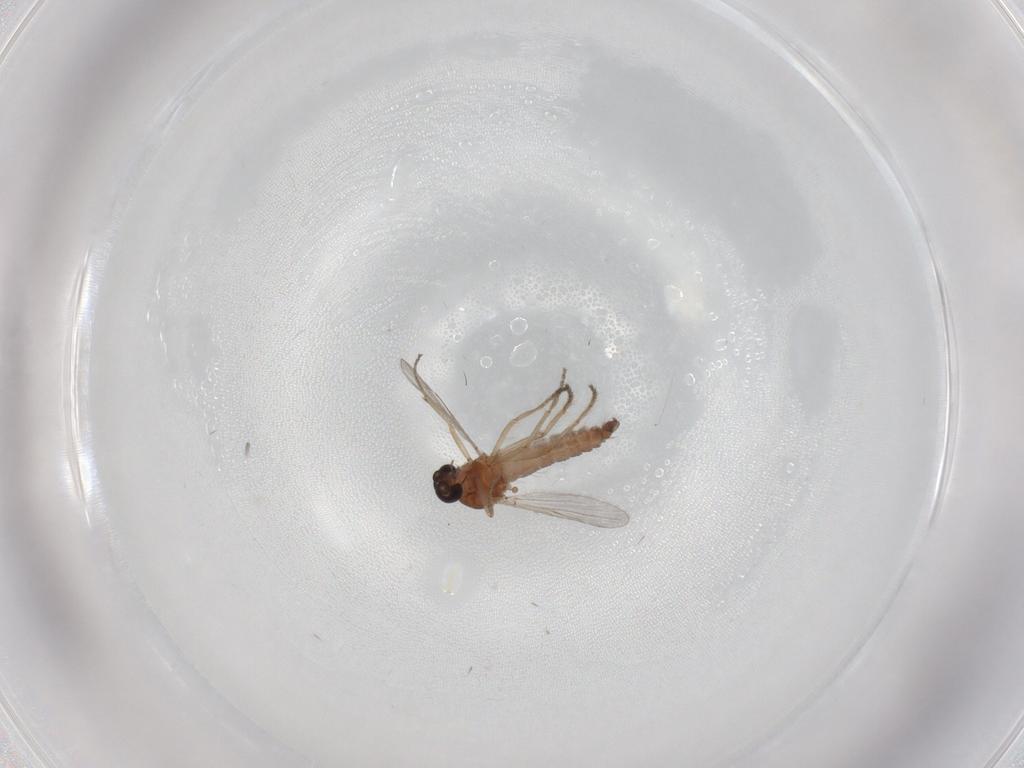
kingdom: Animalia
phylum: Arthropoda
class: Insecta
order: Diptera
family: Ceratopogonidae
